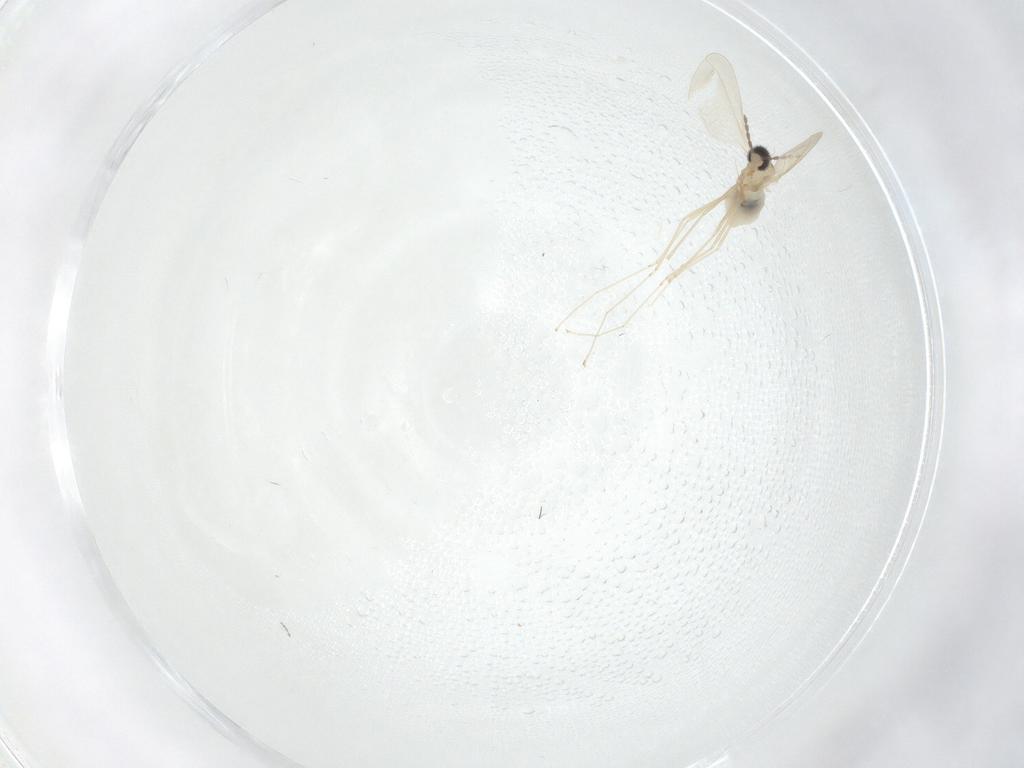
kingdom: Animalia
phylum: Arthropoda
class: Insecta
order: Diptera
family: Cecidomyiidae
